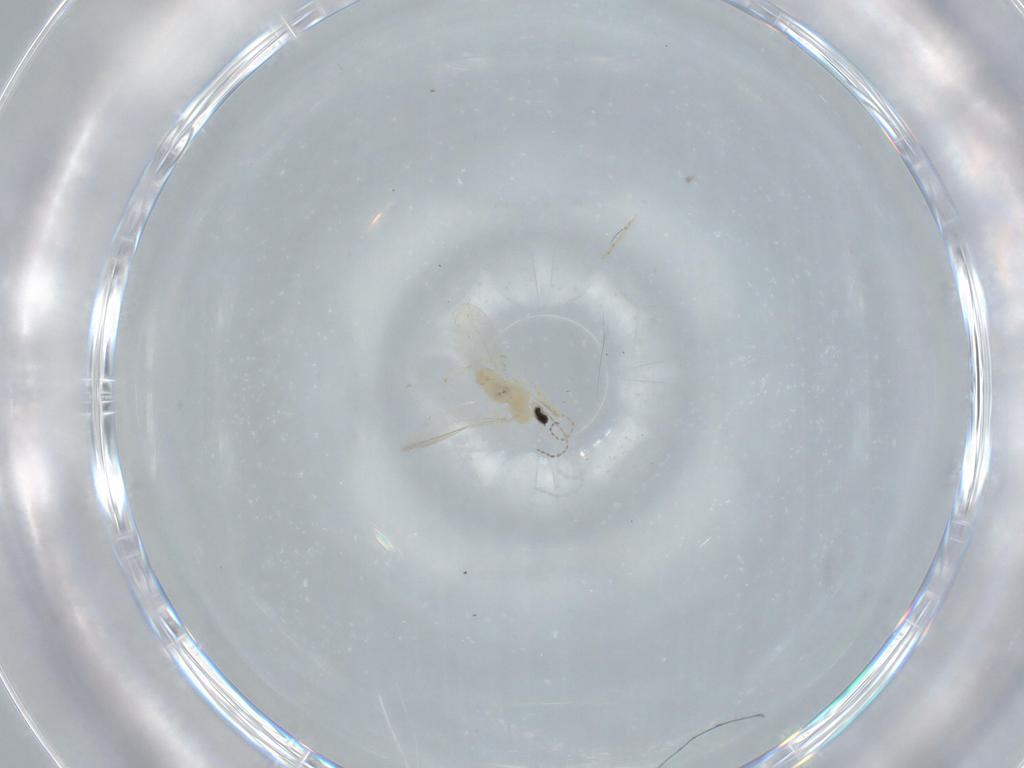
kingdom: Animalia
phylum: Arthropoda
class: Insecta
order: Diptera
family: Cecidomyiidae
